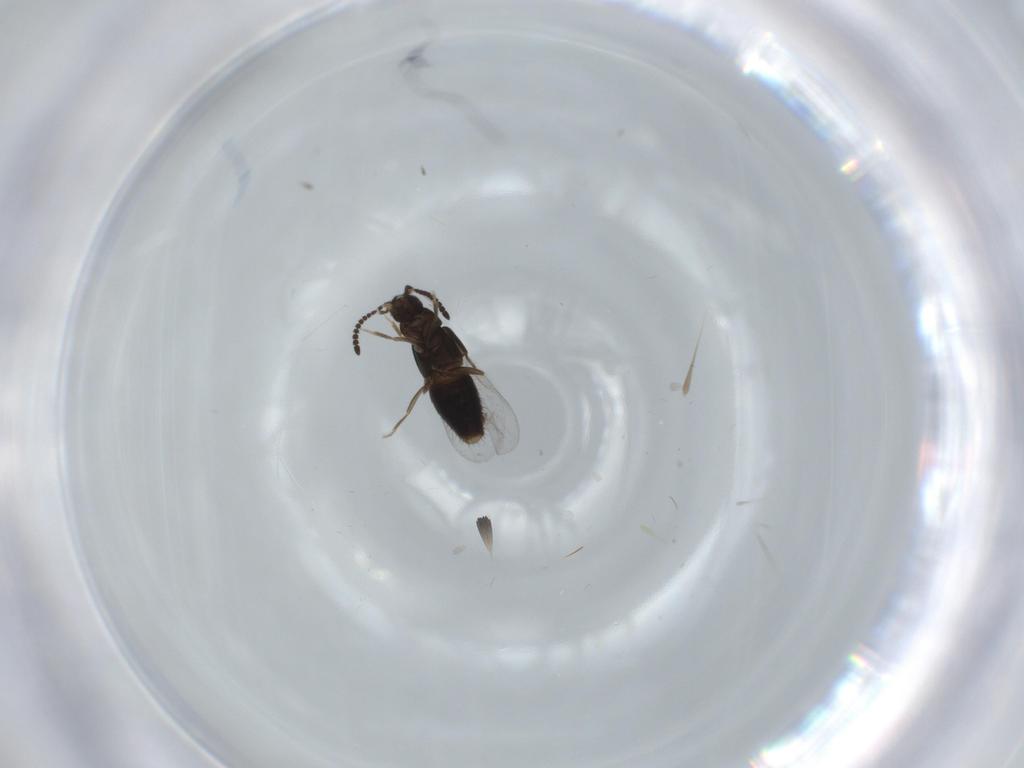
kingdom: Animalia
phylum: Arthropoda
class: Insecta
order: Coleoptera
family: Staphylinidae
